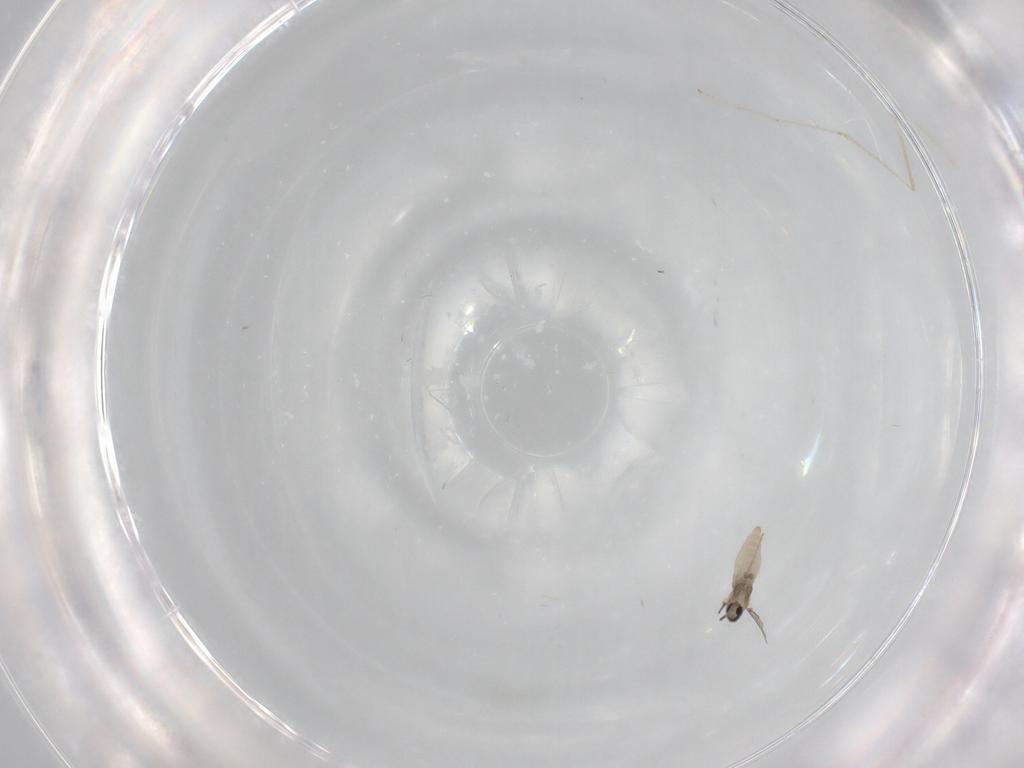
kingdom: Animalia
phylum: Arthropoda
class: Insecta
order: Diptera
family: Cecidomyiidae
